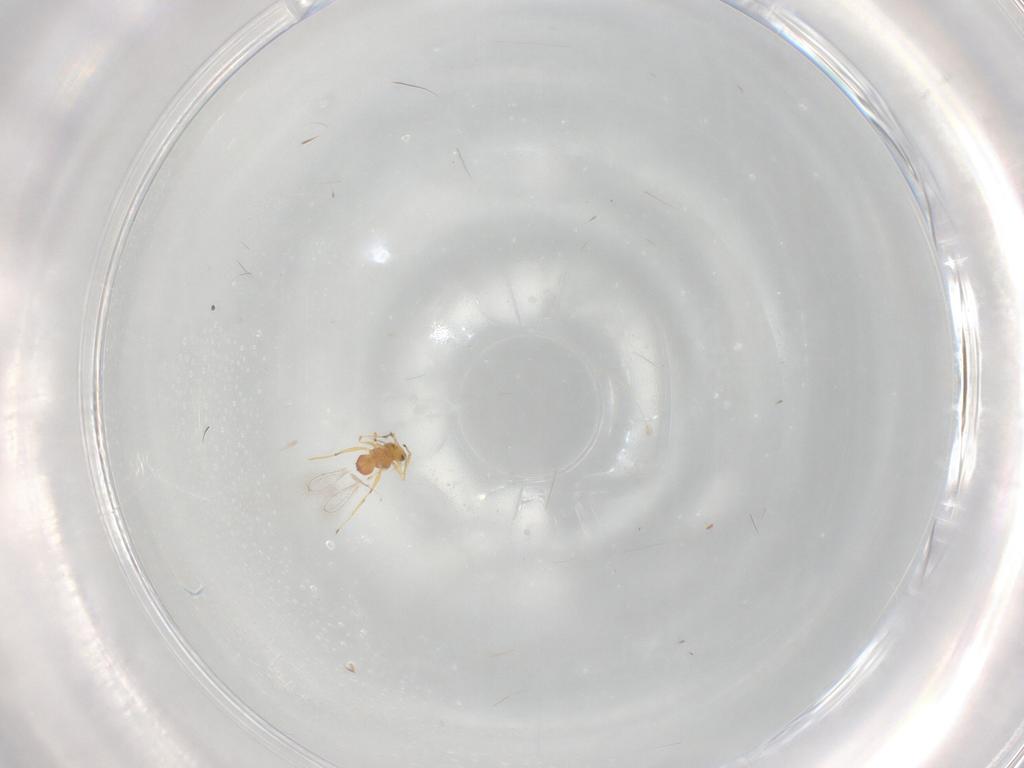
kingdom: Animalia
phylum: Arthropoda
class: Insecta
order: Hymenoptera
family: Mymaridae
